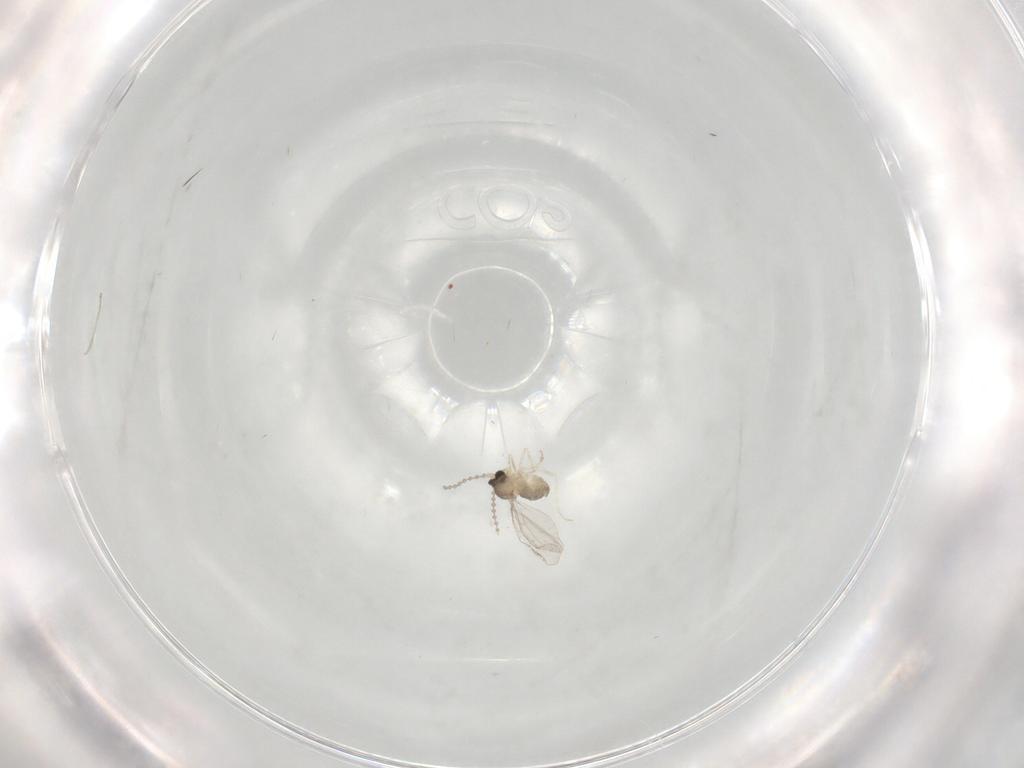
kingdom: Animalia
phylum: Arthropoda
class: Insecta
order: Diptera
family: Cecidomyiidae
